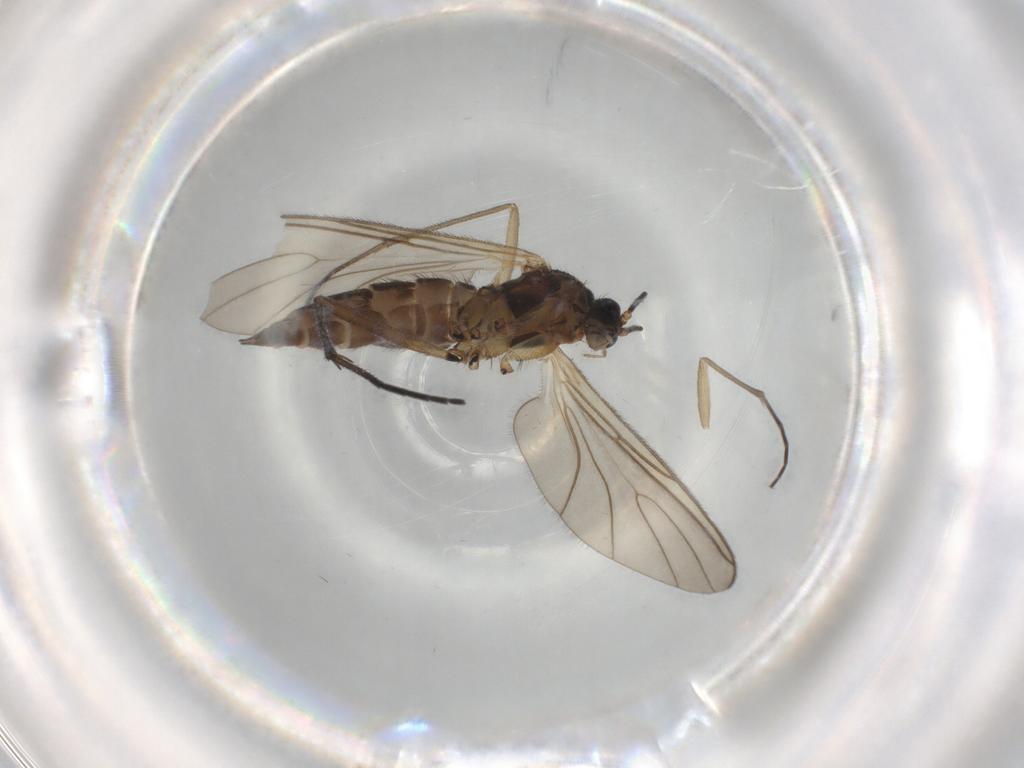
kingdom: Animalia
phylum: Arthropoda
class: Insecta
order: Diptera
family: Sciaridae
